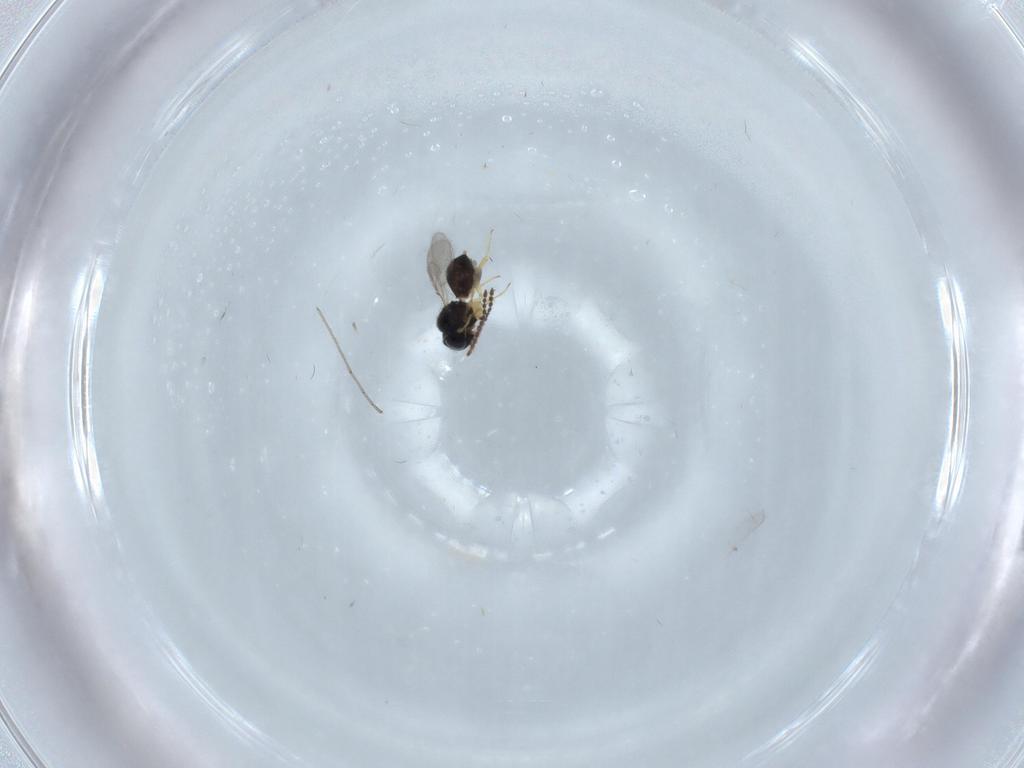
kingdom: Animalia
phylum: Arthropoda
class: Insecta
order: Hymenoptera
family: Scelionidae
